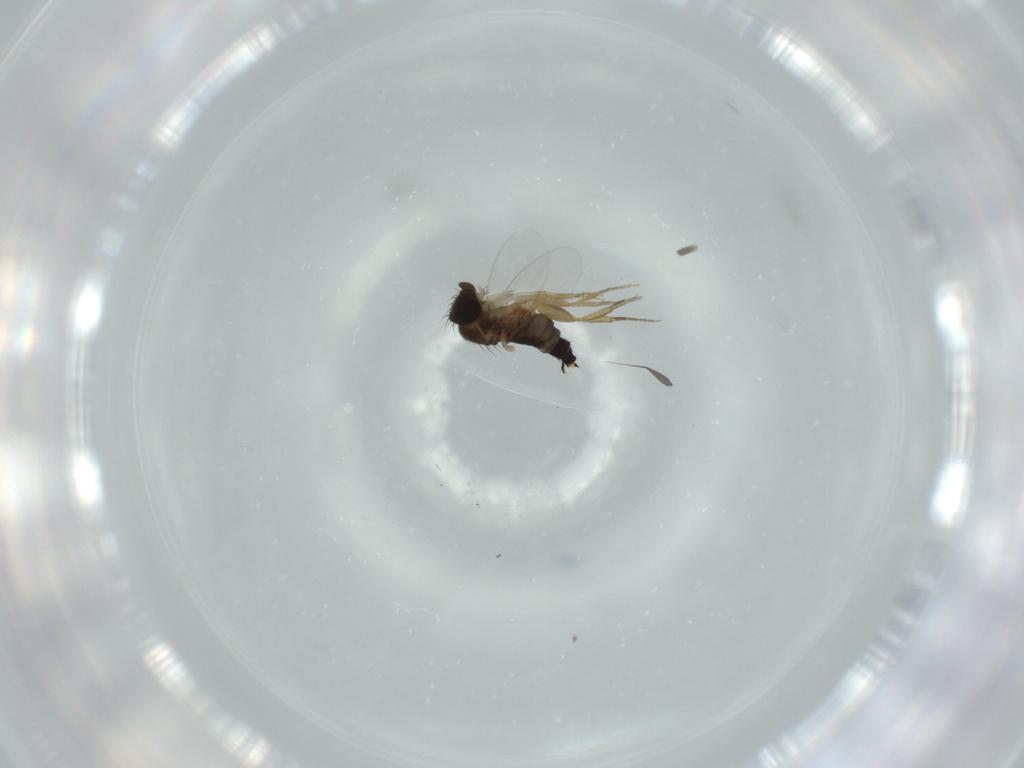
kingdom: Animalia
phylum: Arthropoda
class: Insecta
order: Diptera
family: Phoridae
